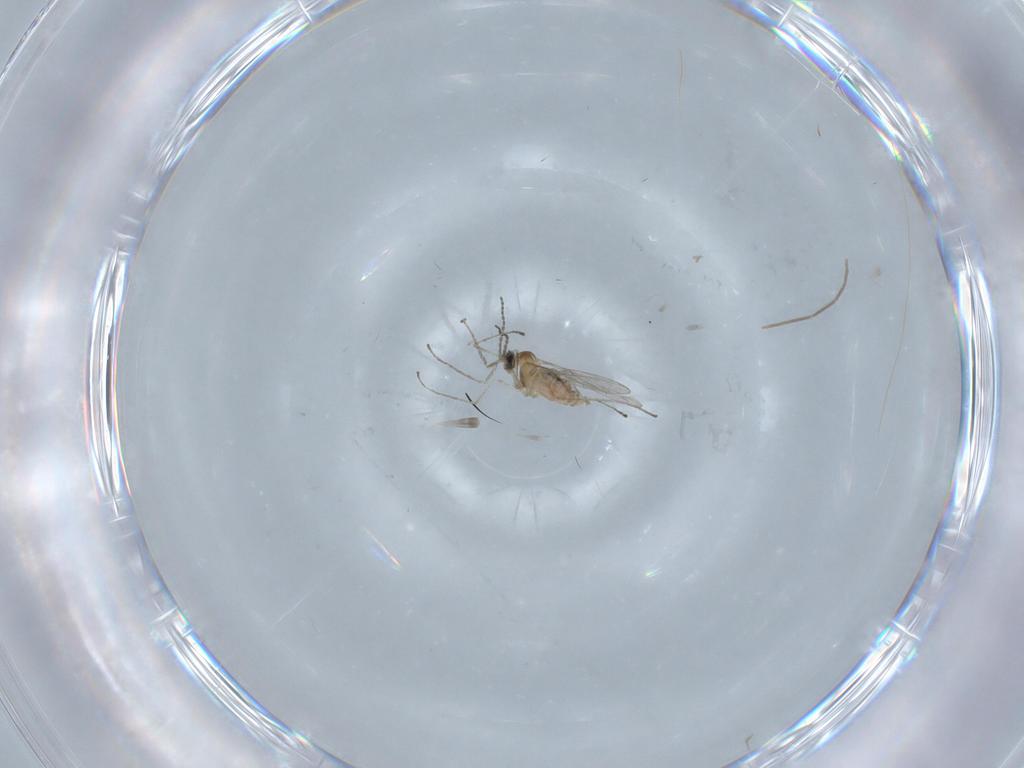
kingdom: Animalia
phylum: Arthropoda
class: Insecta
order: Diptera
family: Cecidomyiidae
